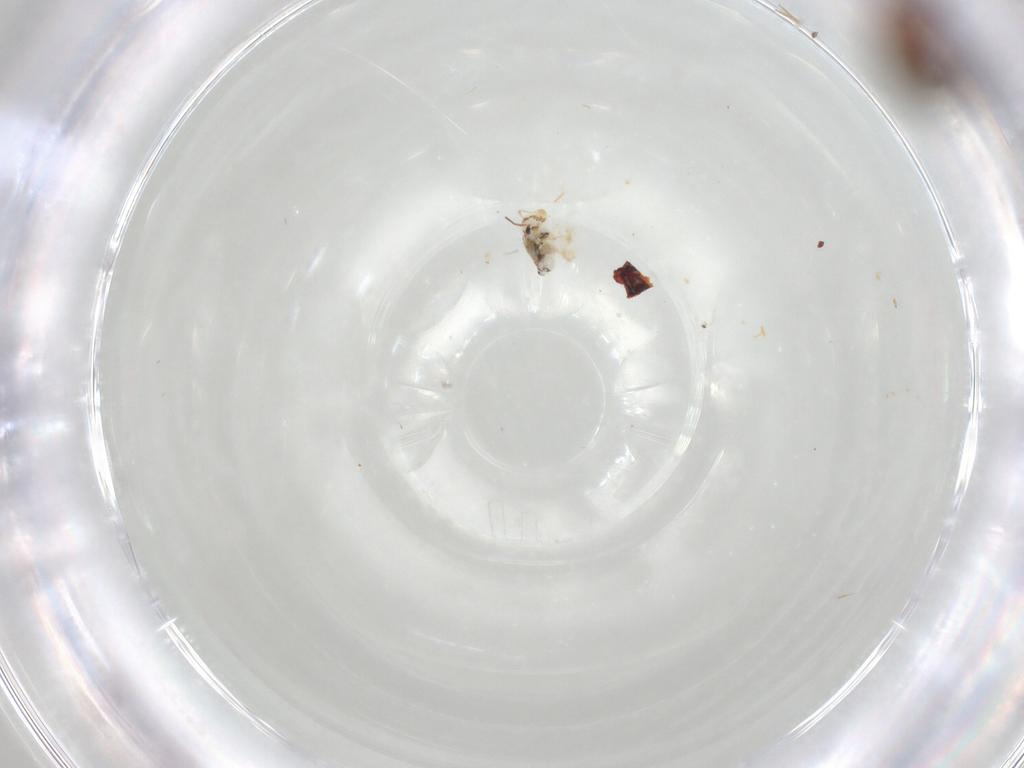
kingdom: Animalia
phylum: Arthropoda
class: Collembola
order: Symphypleona
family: Bourletiellidae
